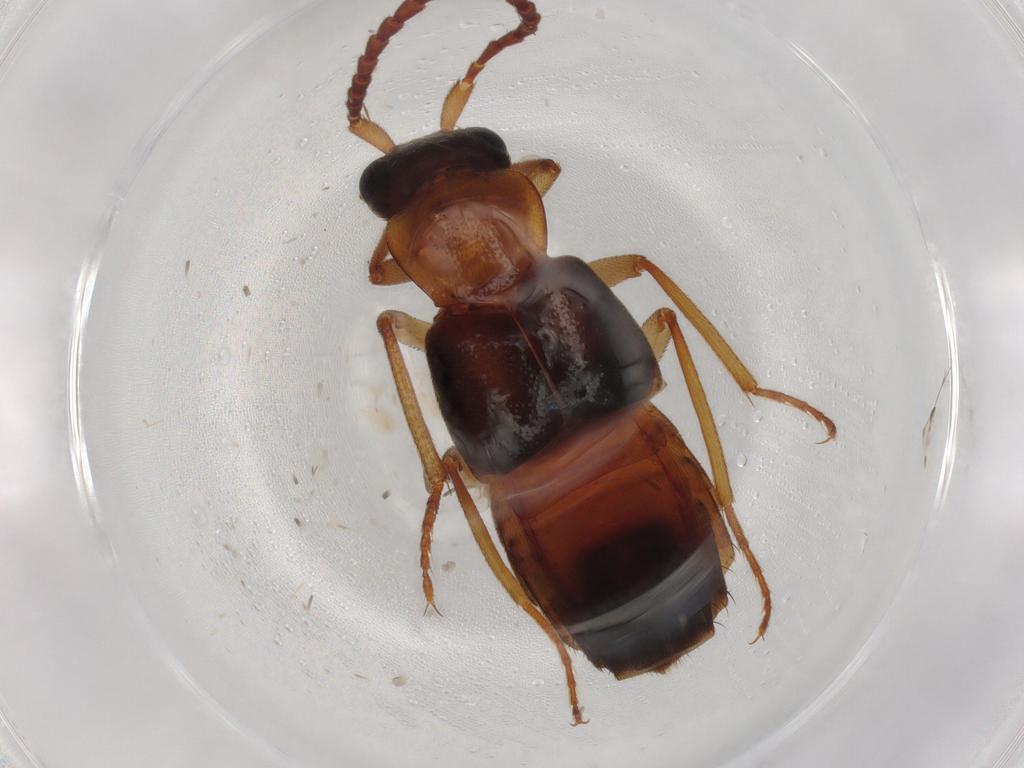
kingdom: Animalia
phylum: Arthropoda
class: Insecta
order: Coleoptera
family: Staphylinidae
